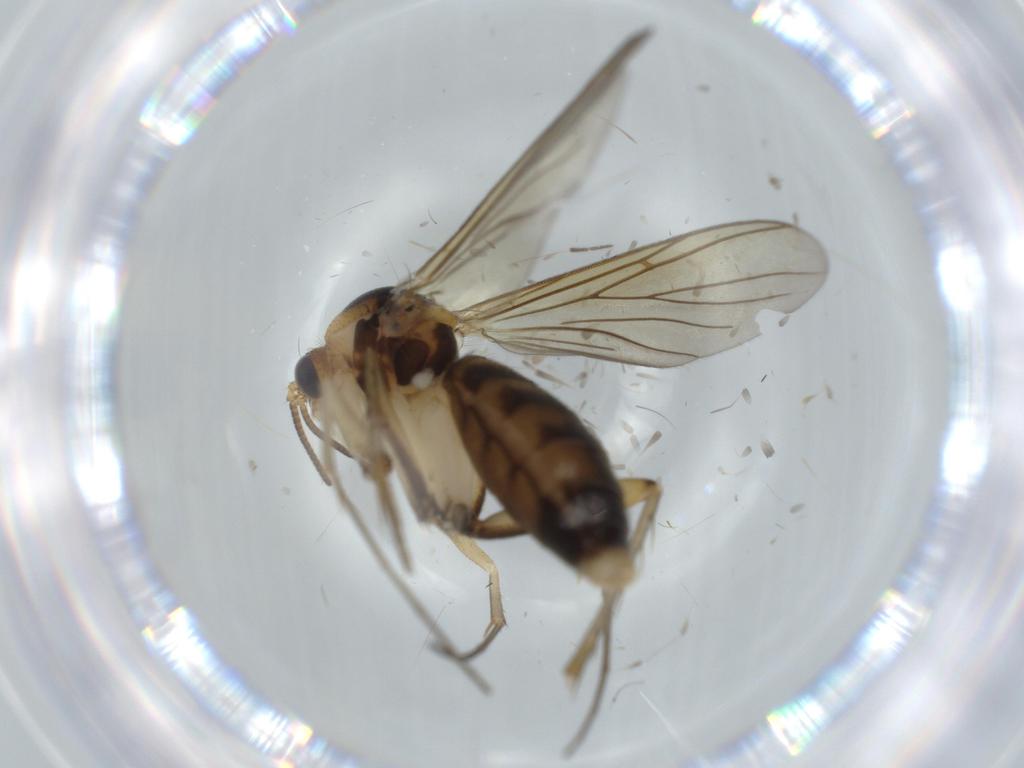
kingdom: Animalia
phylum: Arthropoda
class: Insecta
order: Diptera
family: Mycetophilidae
